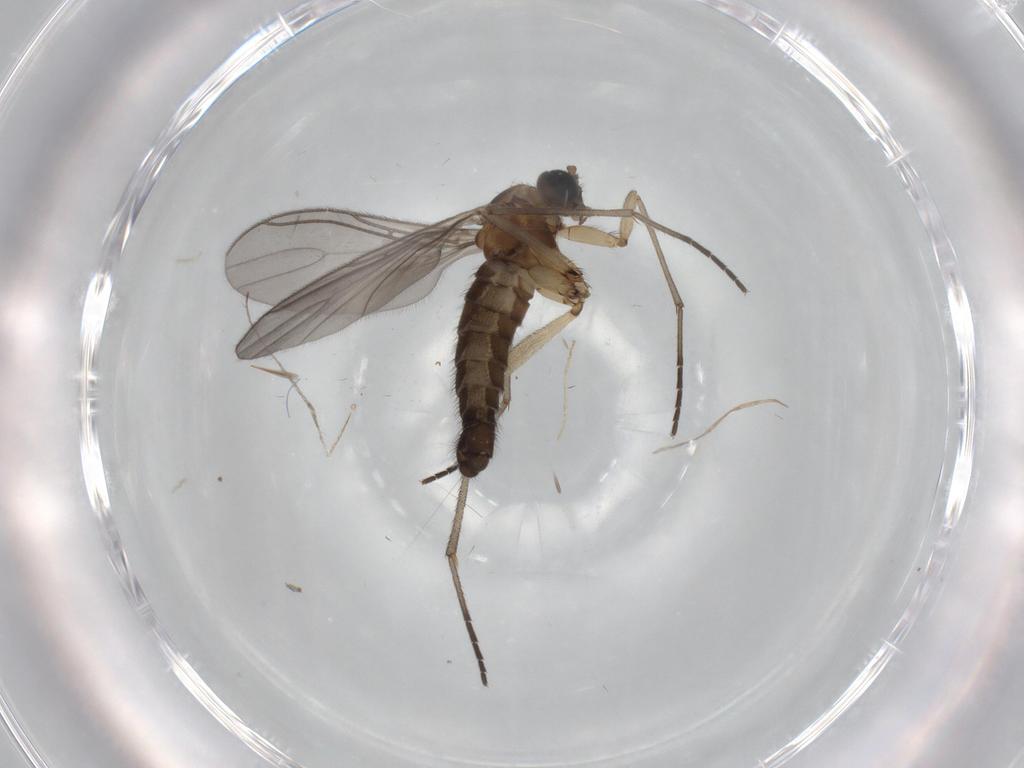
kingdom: Animalia
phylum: Arthropoda
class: Insecta
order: Diptera
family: Sciaridae
